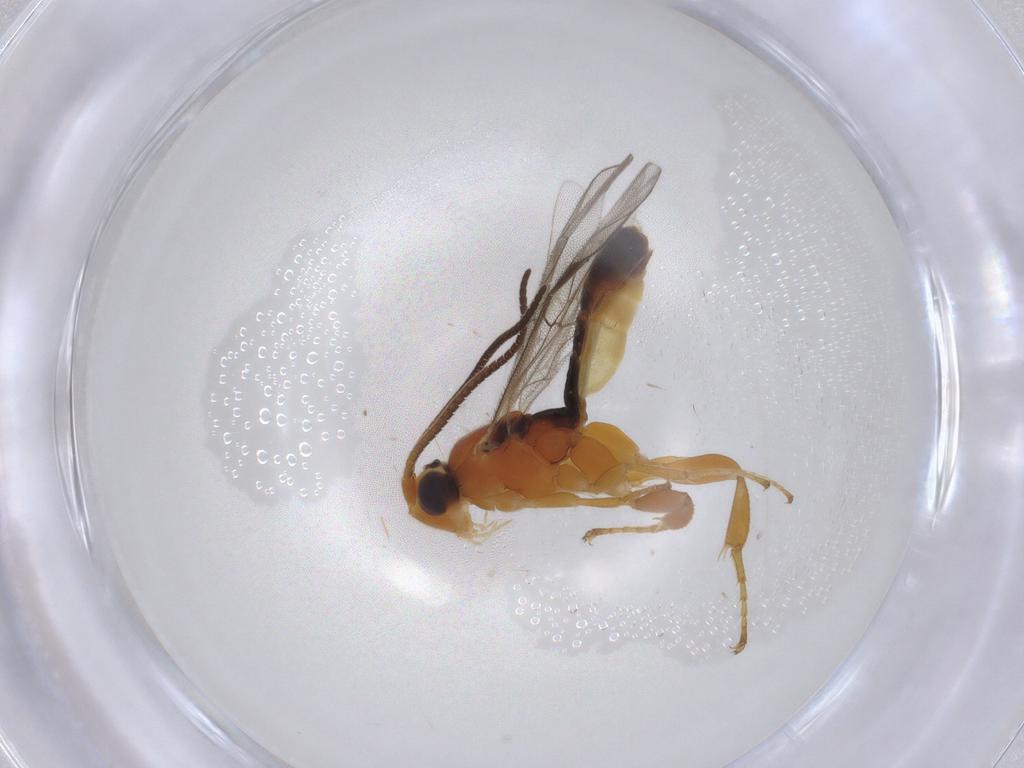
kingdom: Animalia
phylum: Arthropoda
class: Insecta
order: Hymenoptera
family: Ichneumonidae
